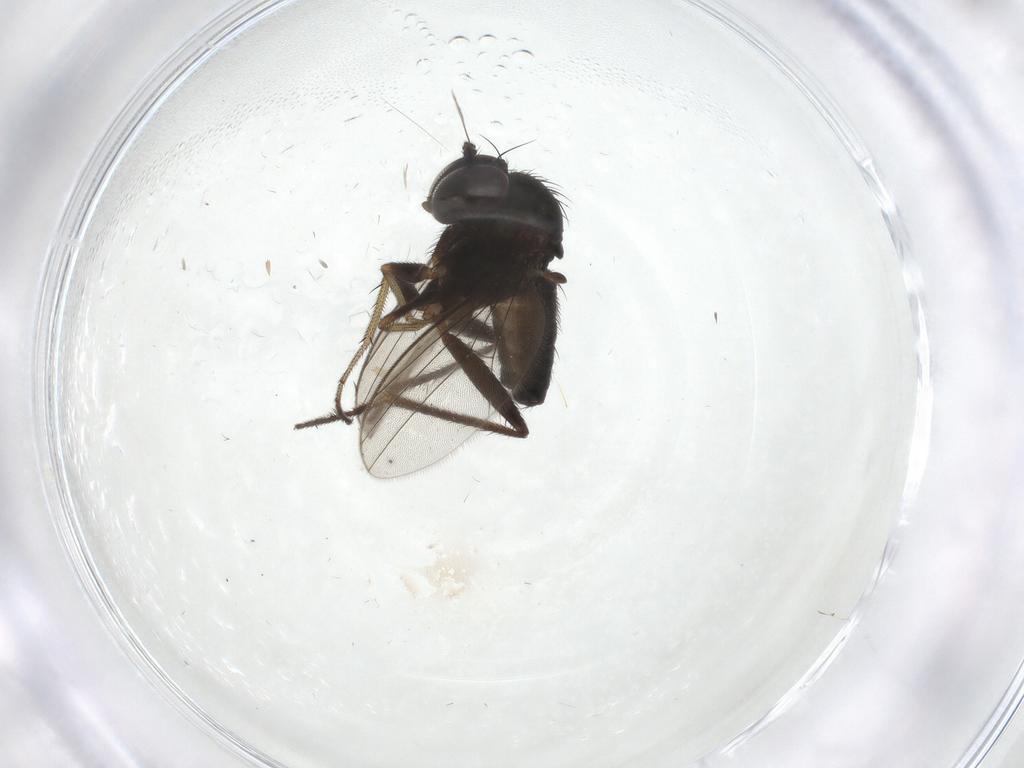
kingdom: Animalia
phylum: Arthropoda
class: Insecta
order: Diptera
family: Dolichopodidae
